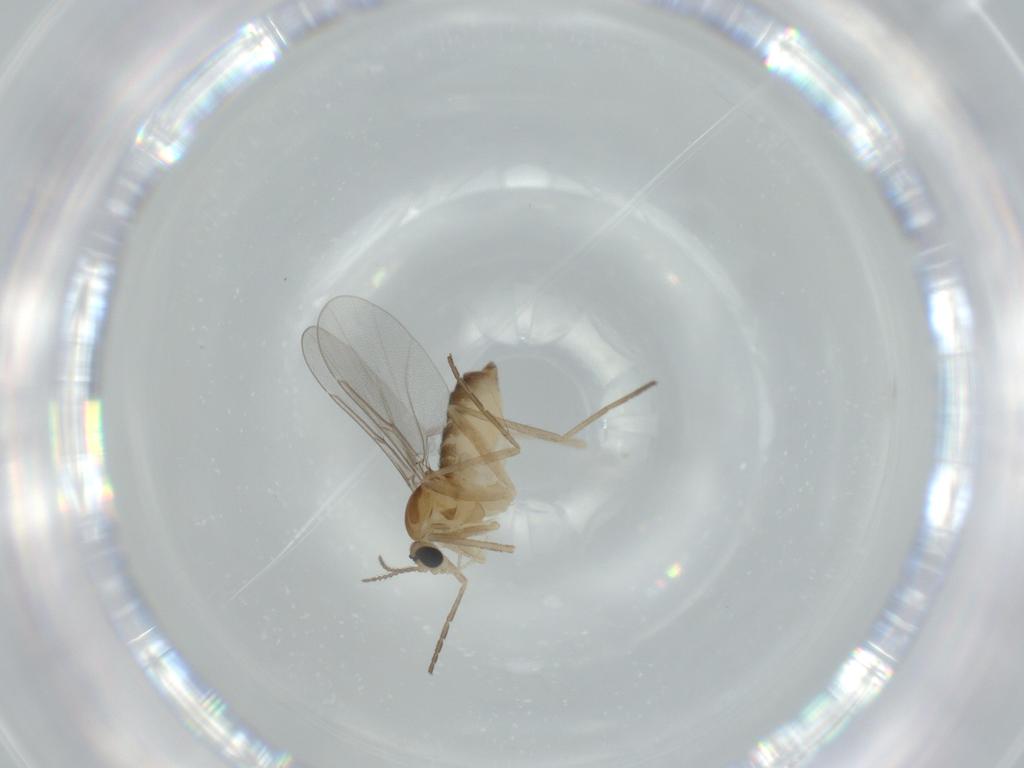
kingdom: Animalia
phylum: Arthropoda
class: Insecta
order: Diptera
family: Cecidomyiidae
